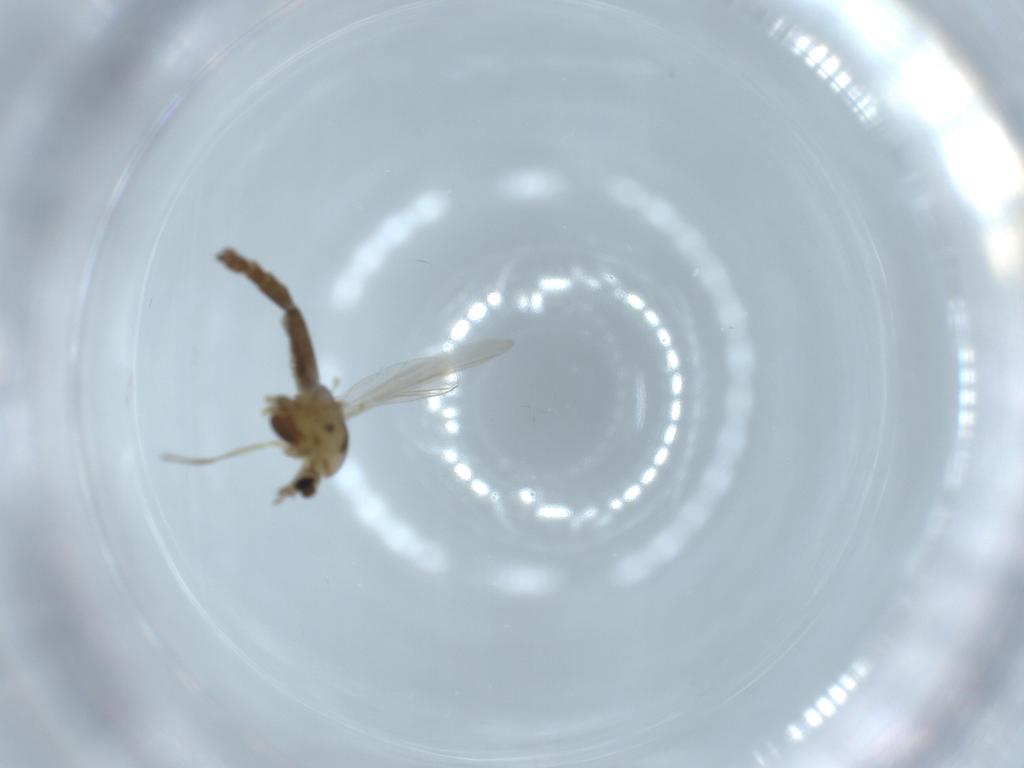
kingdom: Animalia
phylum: Arthropoda
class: Insecta
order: Diptera
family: Chironomidae
